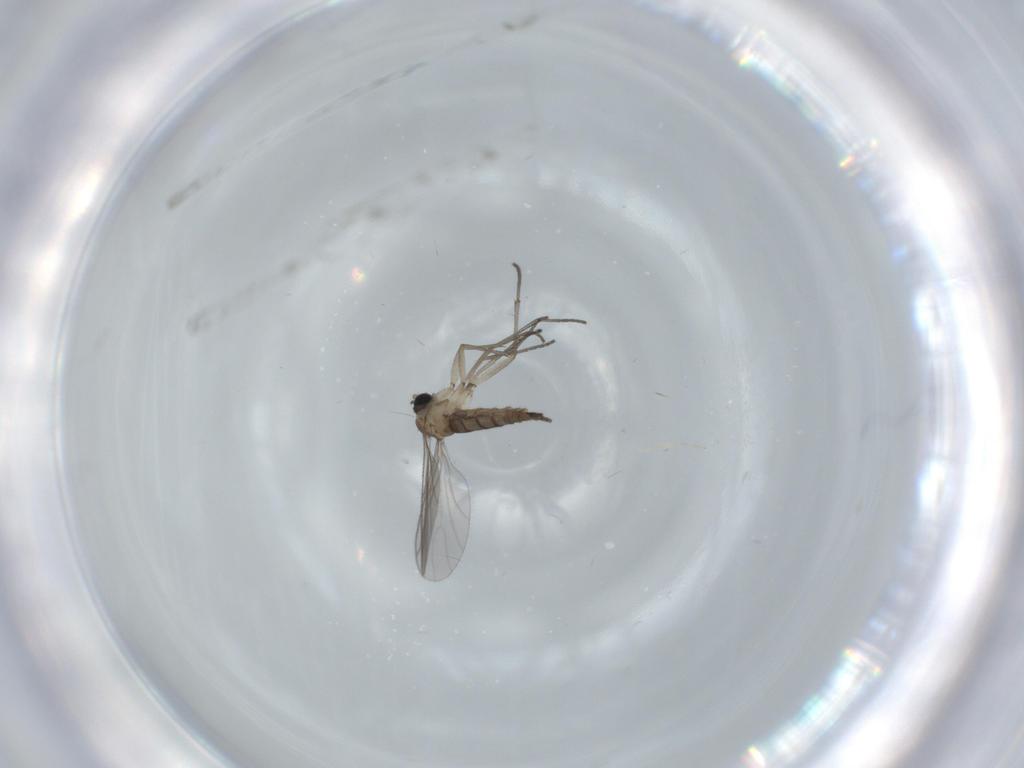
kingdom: Animalia
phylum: Arthropoda
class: Insecta
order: Diptera
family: Sciaridae
